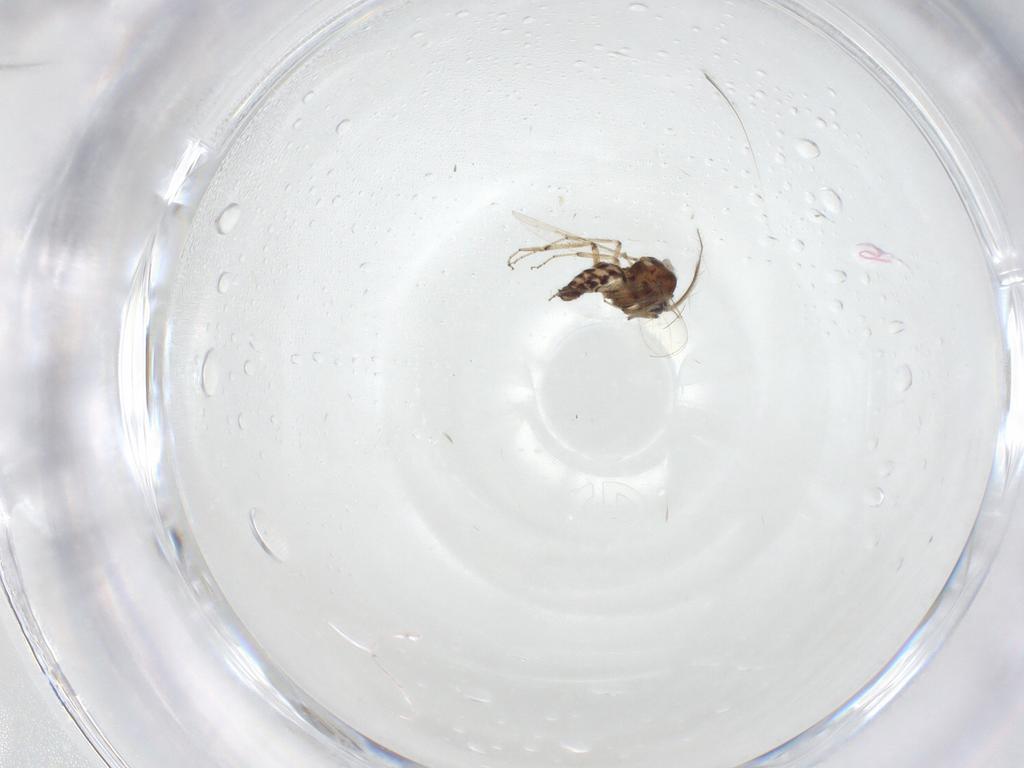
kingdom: Animalia
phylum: Arthropoda
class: Insecta
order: Diptera
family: Ceratopogonidae
